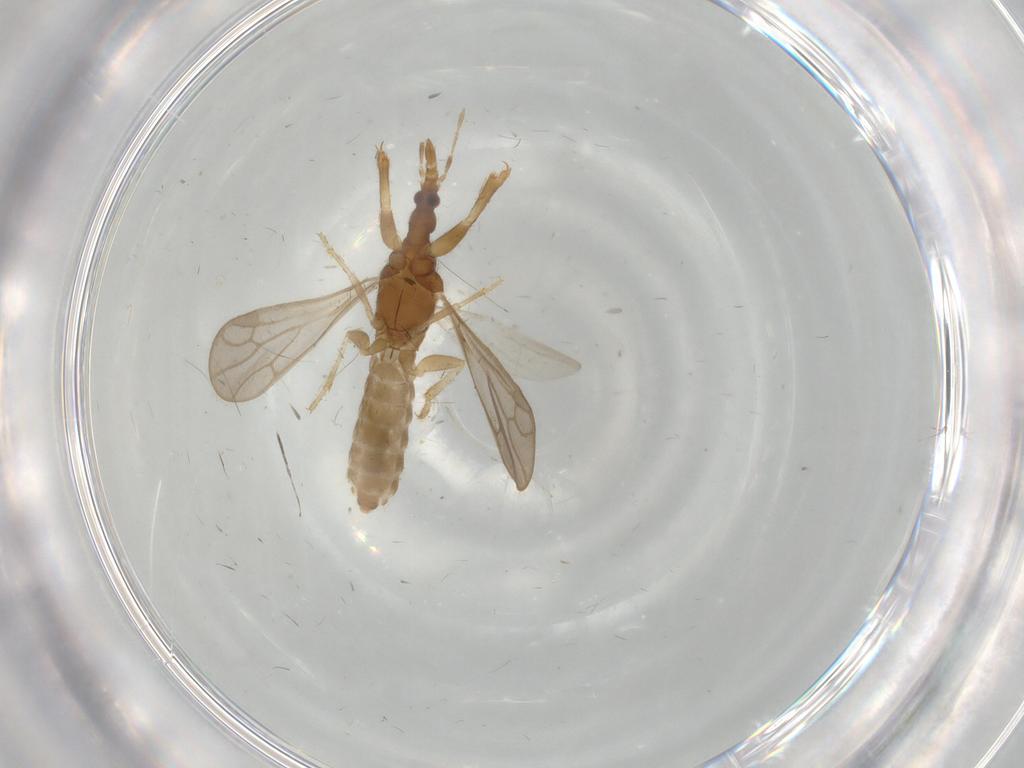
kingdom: Animalia
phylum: Arthropoda
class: Insecta
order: Hemiptera
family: Enicocephalidae
